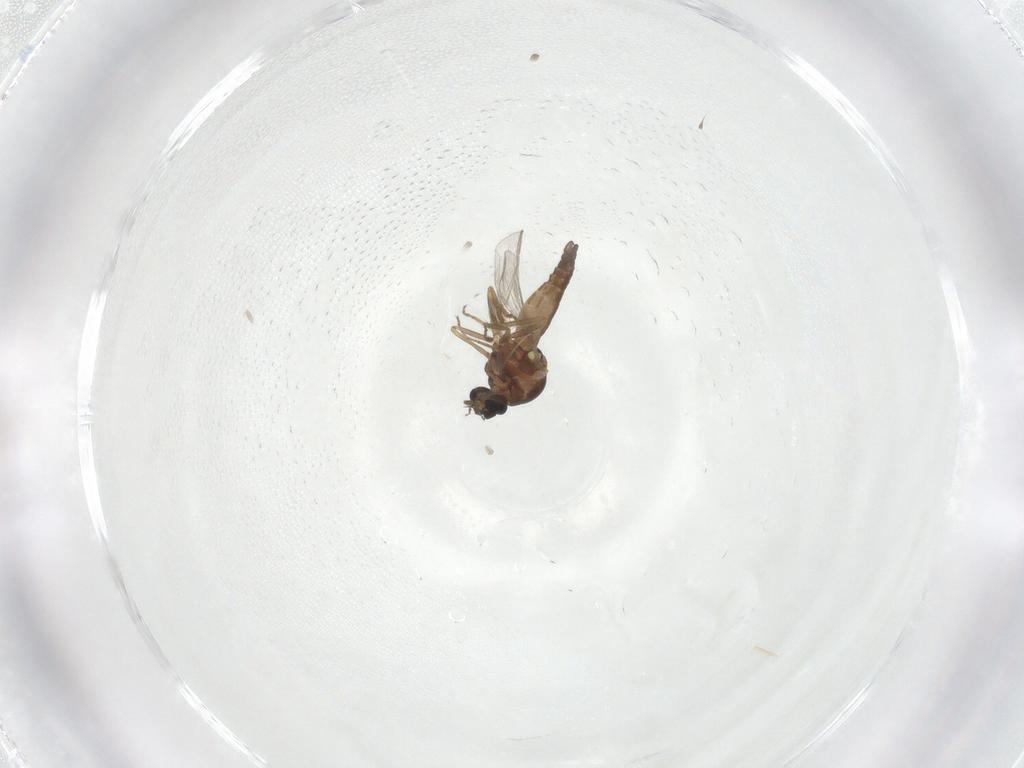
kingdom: Animalia
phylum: Arthropoda
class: Insecta
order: Diptera
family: Ceratopogonidae
